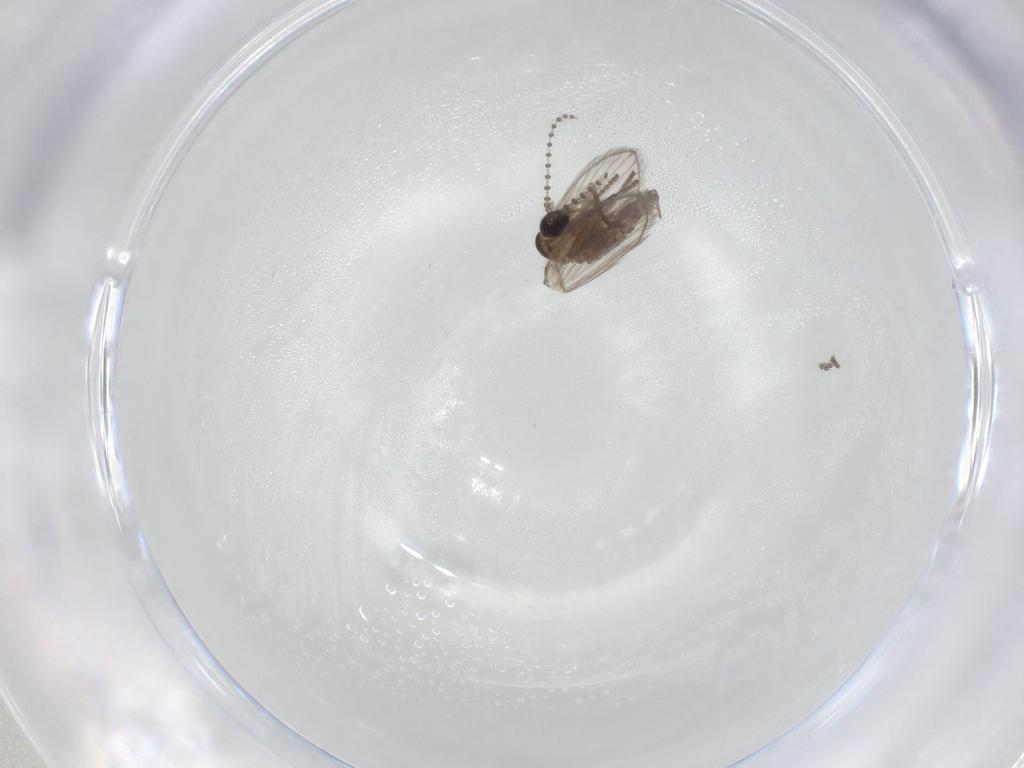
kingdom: Animalia
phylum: Arthropoda
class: Insecta
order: Diptera
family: Psychodidae
